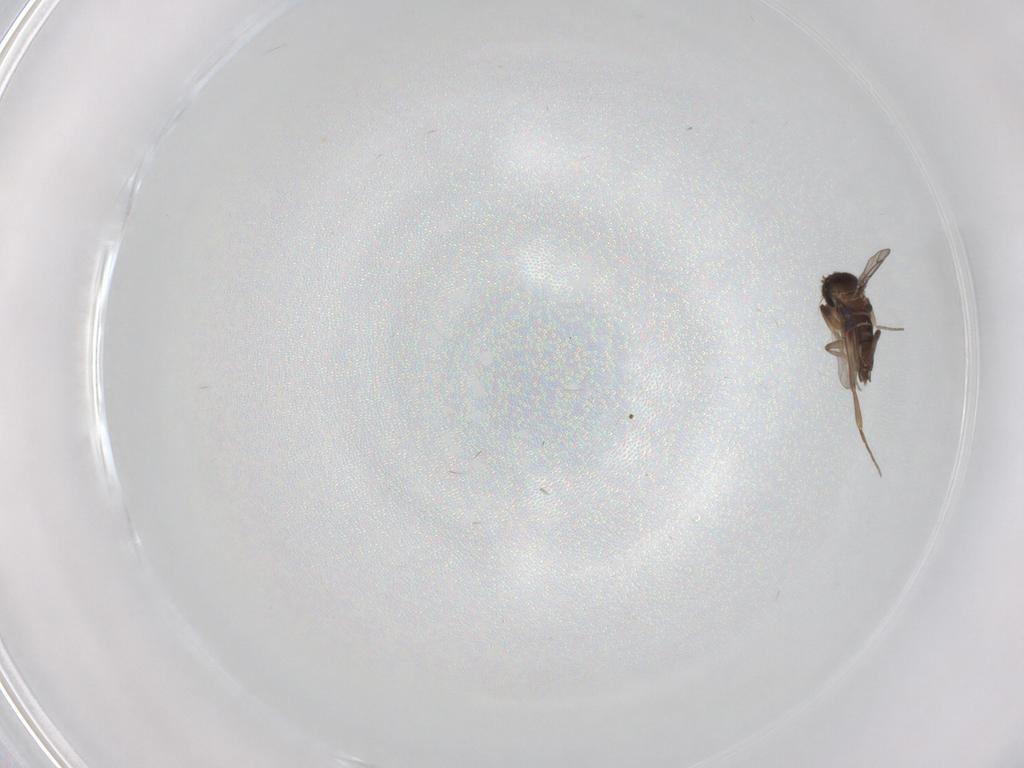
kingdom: Animalia
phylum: Arthropoda
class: Insecta
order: Diptera
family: Phoridae
